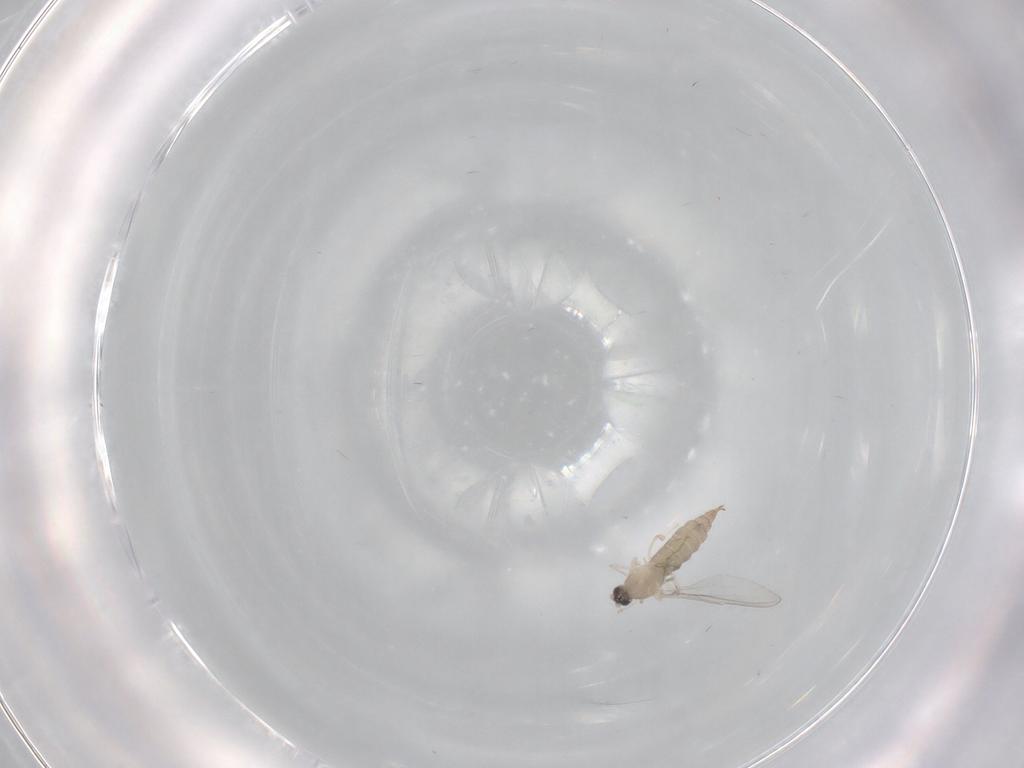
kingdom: Animalia
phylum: Arthropoda
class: Insecta
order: Diptera
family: Cecidomyiidae
